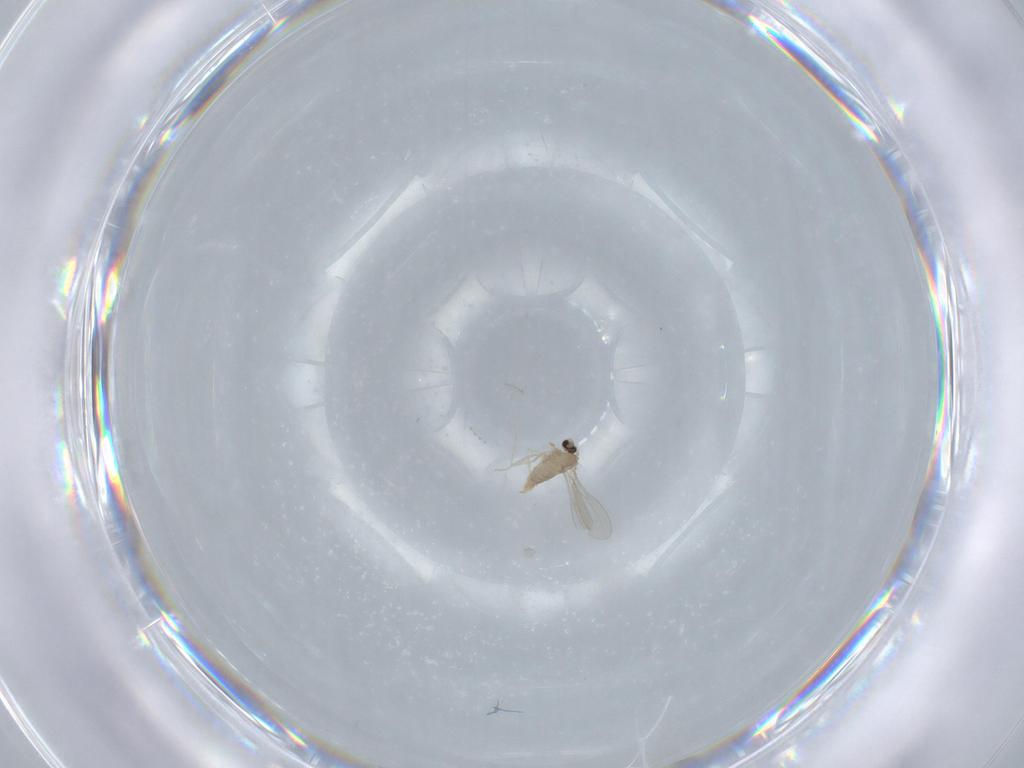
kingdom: Animalia
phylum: Arthropoda
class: Insecta
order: Diptera
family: Cecidomyiidae
